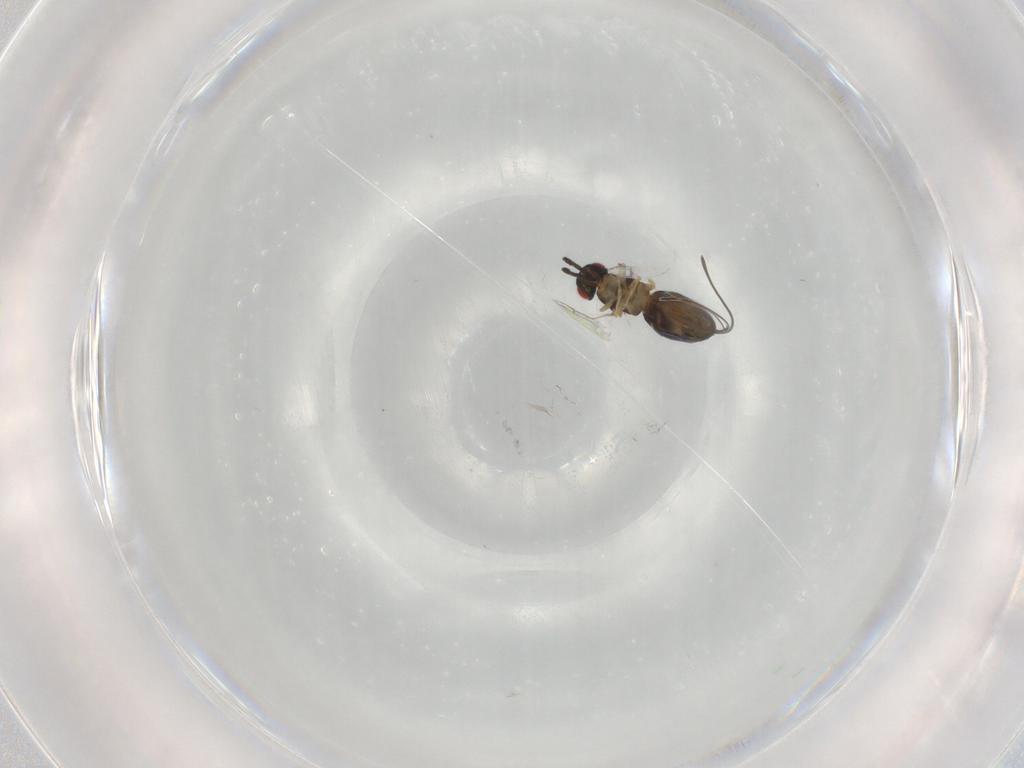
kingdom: Animalia
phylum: Arthropoda
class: Insecta
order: Hymenoptera
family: Pteromalidae
